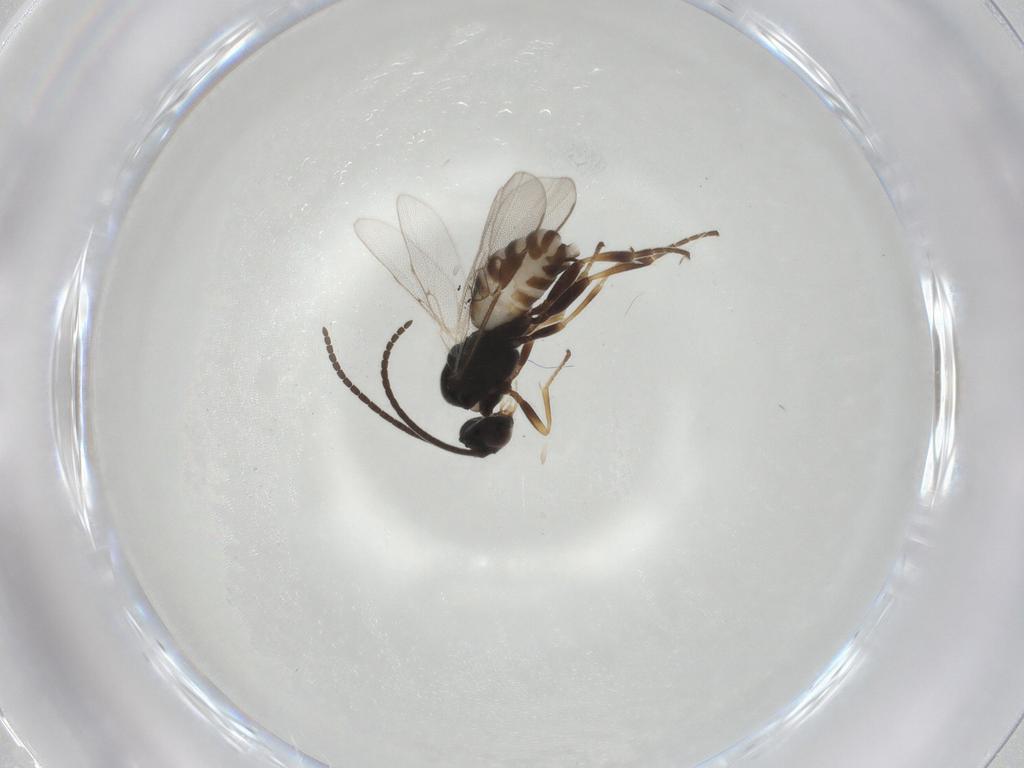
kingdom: Animalia
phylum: Arthropoda
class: Insecta
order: Hymenoptera
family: Braconidae
